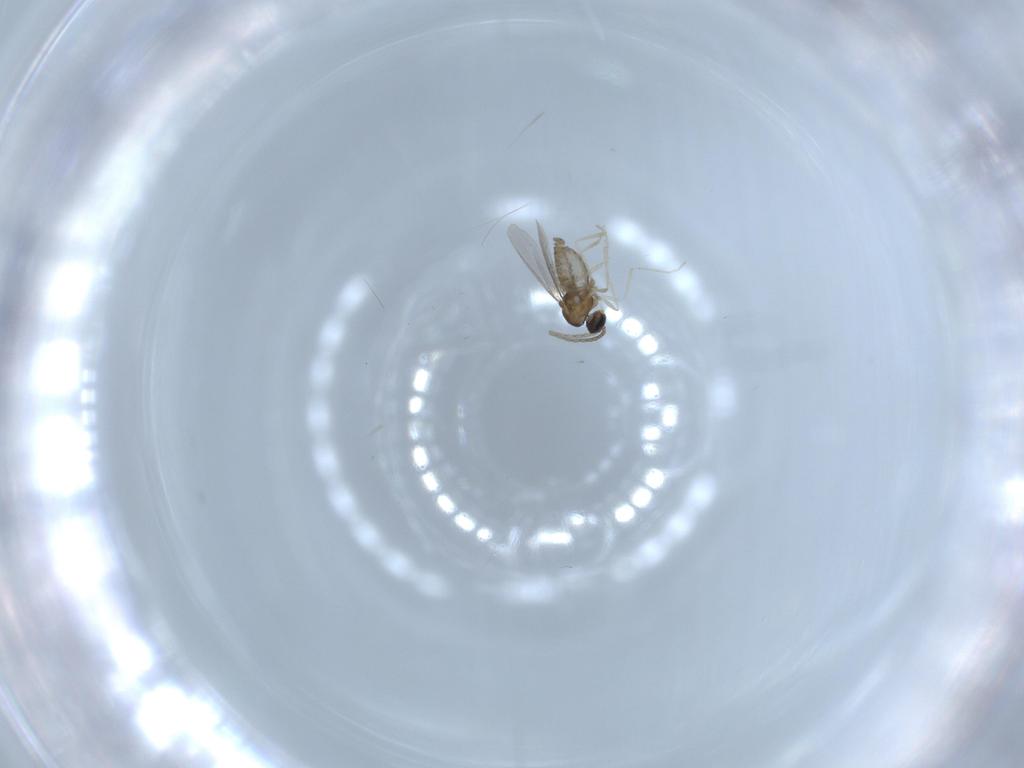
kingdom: Animalia
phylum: Arthropoda
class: Insecta
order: Diptera
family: Cecidomyiidae
